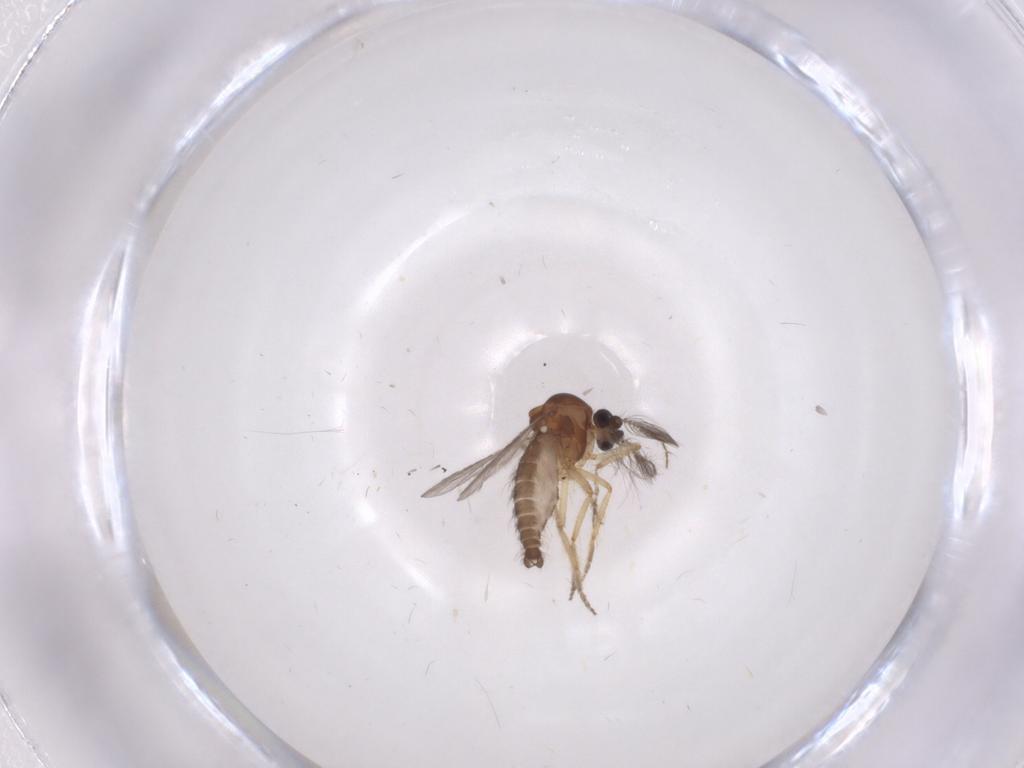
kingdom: Animalia
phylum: Arthropoda
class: Insecta
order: Diptera
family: Ceratopogonidae
